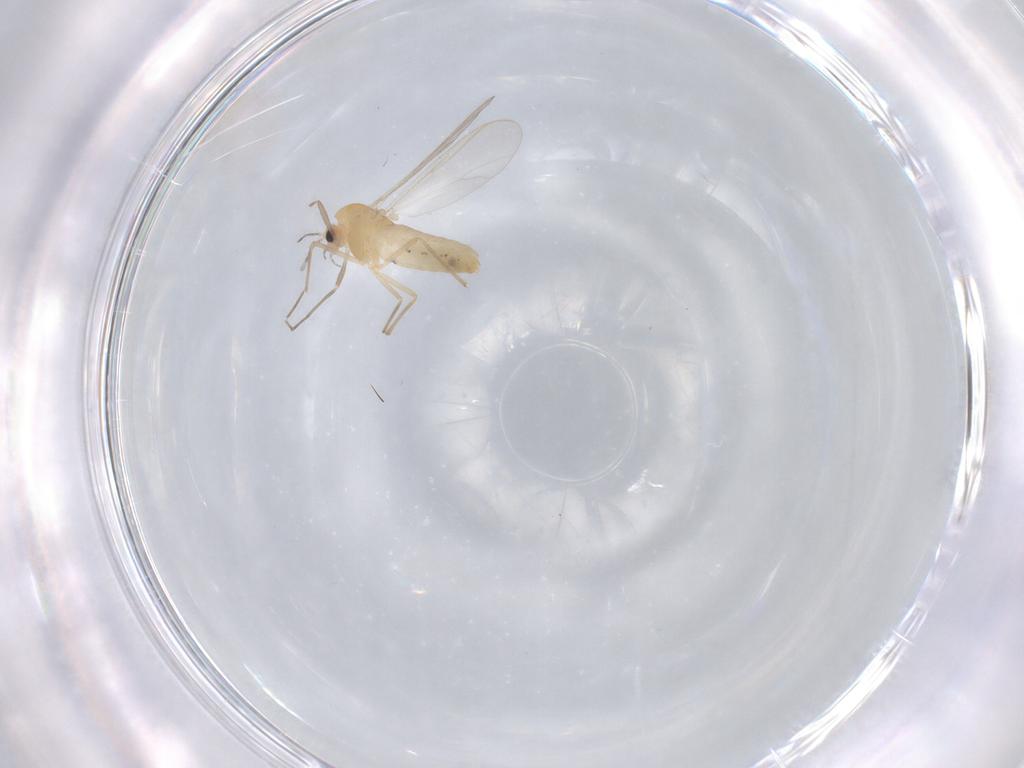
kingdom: Animalia
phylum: Arthropoda
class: Insecta
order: Diptera
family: Chironomidae
